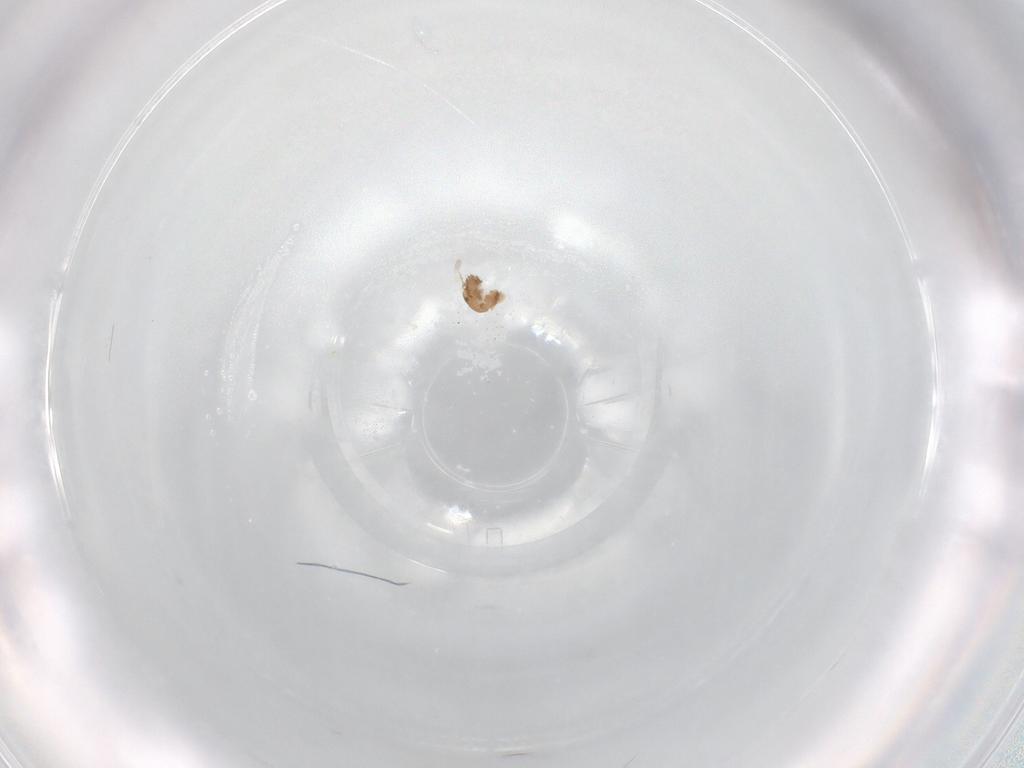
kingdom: Animalia
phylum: Arthropoda
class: Arachnida
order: Sarcoptiformes
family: Oribatellidae
